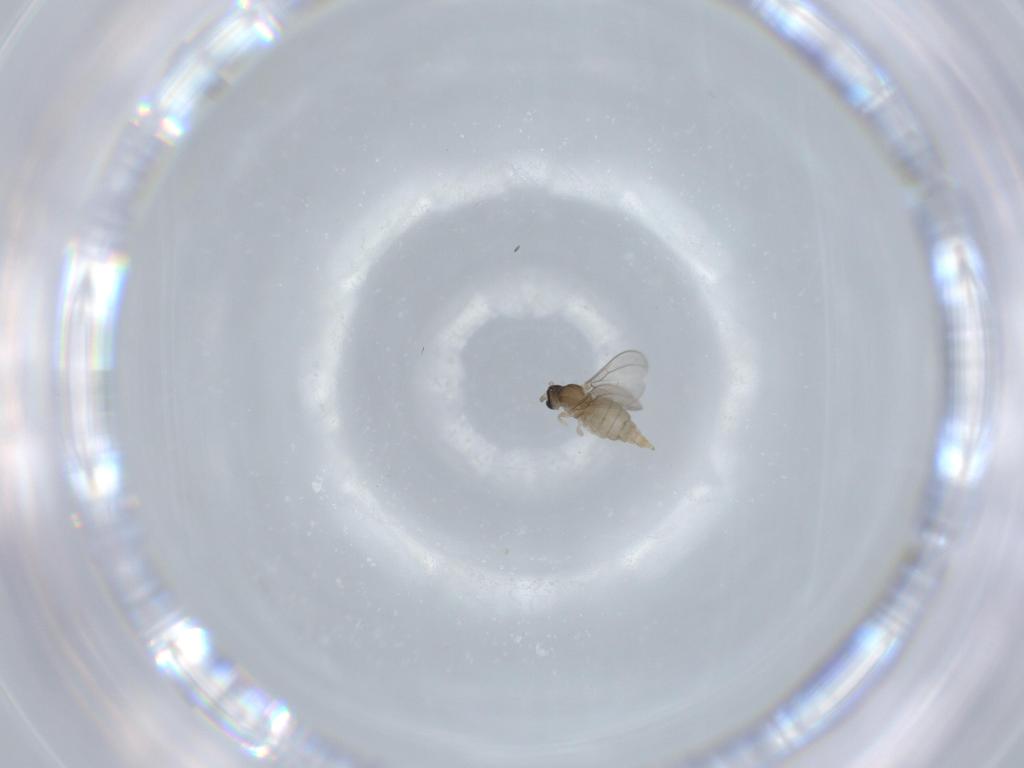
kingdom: Animalia
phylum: Arthropoda
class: Insecta
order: Diptera
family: Cecidomyiidae
